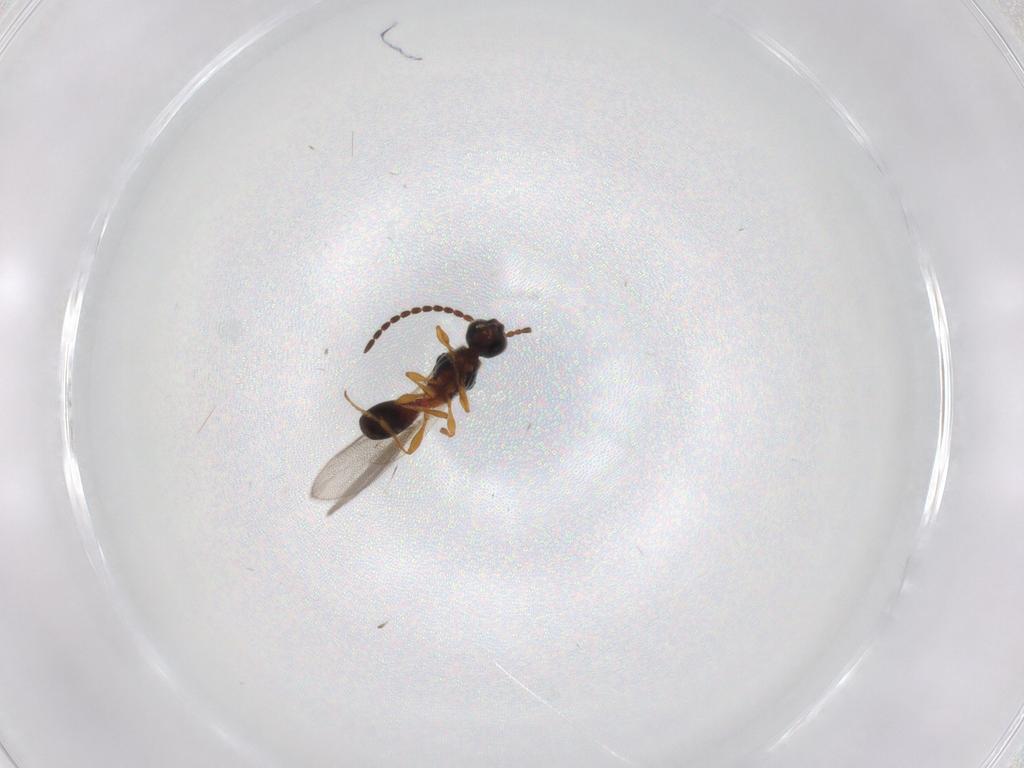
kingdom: Animalia
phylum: Arthropoda
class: Insecta
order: Hymenoptera
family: Diapriidae
